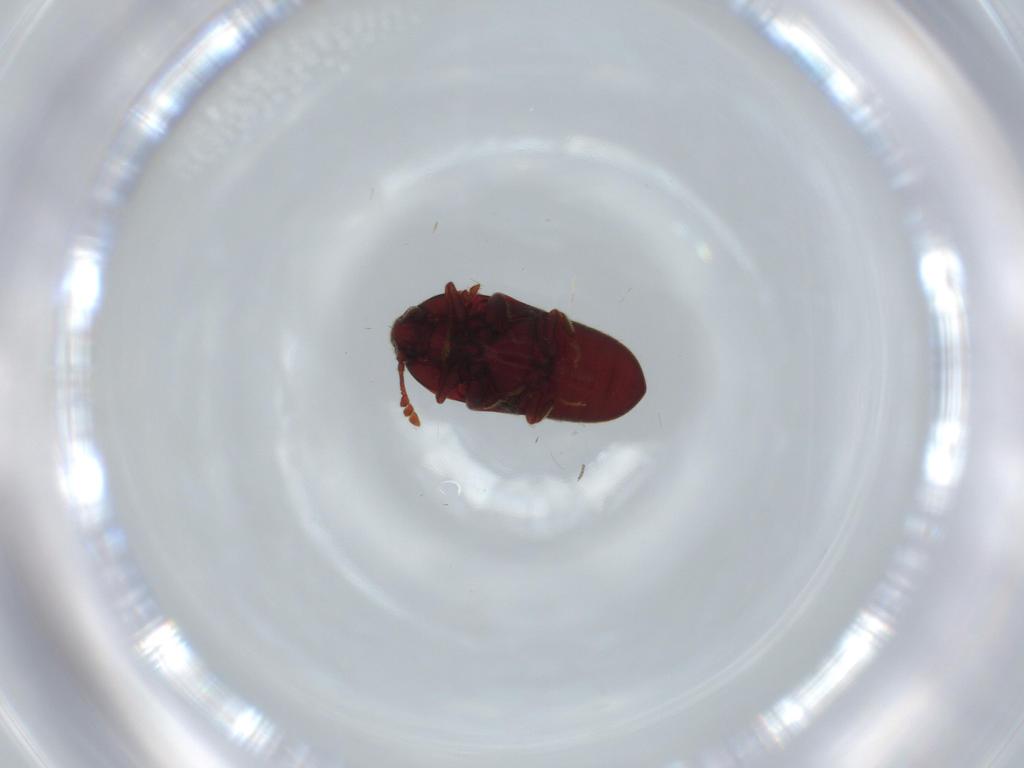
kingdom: Animalia
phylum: Arthropoda
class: Insecta
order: Coleoptera
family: Throscidae
